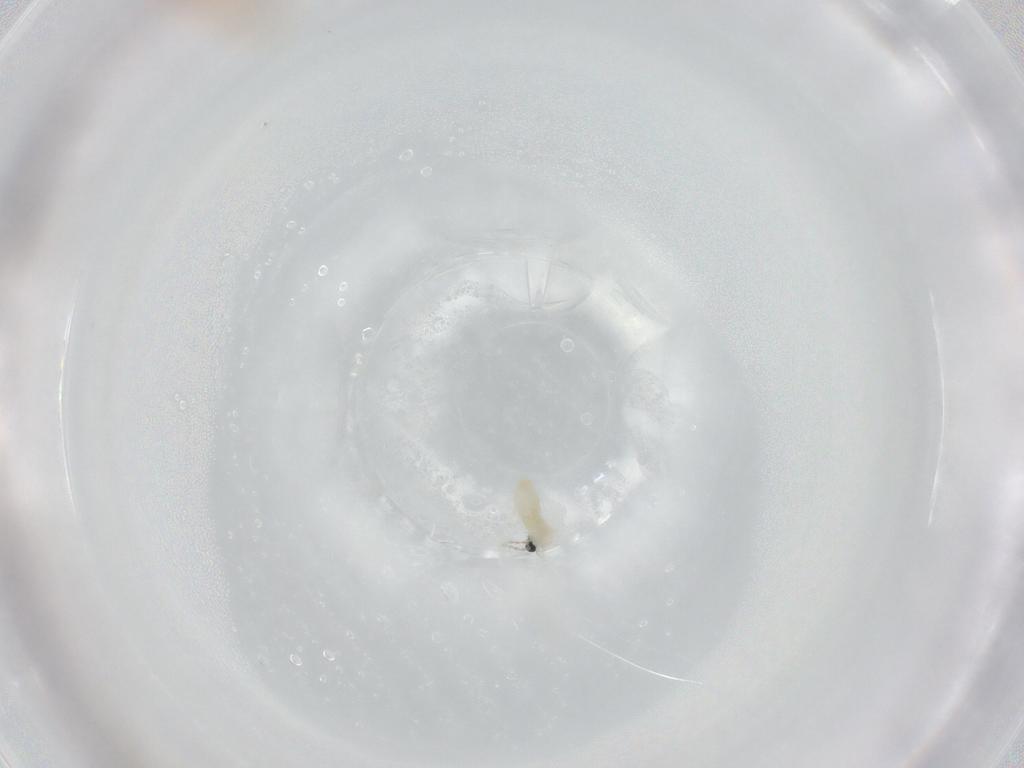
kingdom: Animalia
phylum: Arthropoda
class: Insecta
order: Diptera
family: Syrphidae
